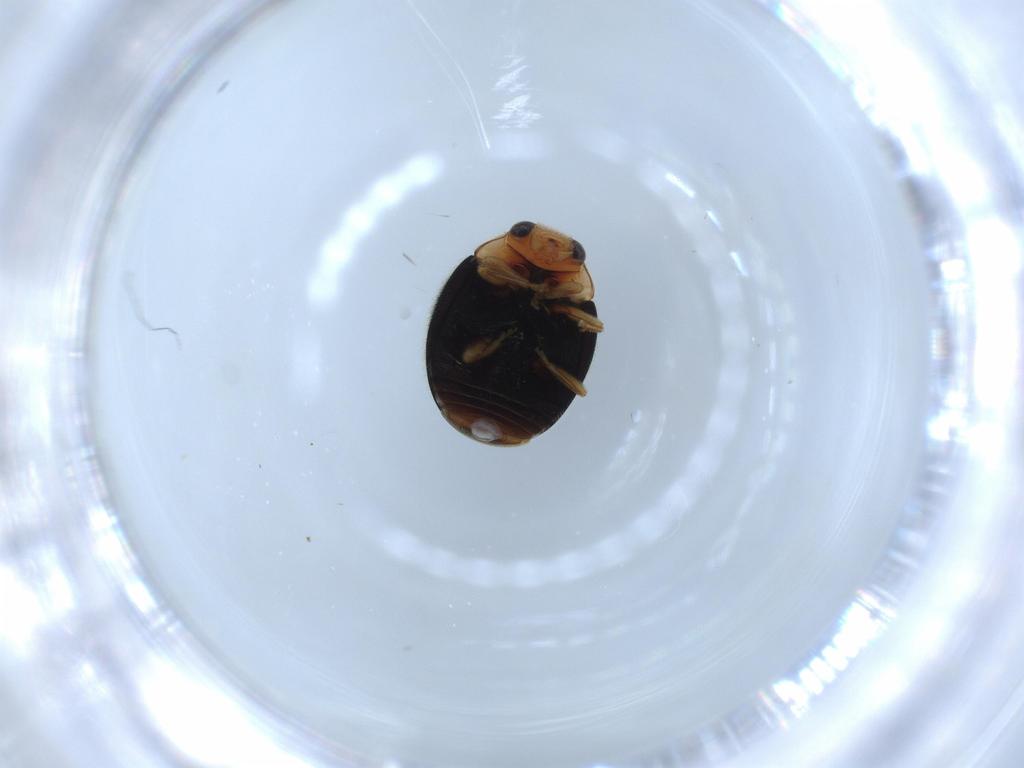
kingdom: Animalia
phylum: Arthropoda
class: Insecta
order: Coleoptera
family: Coccinellidae
